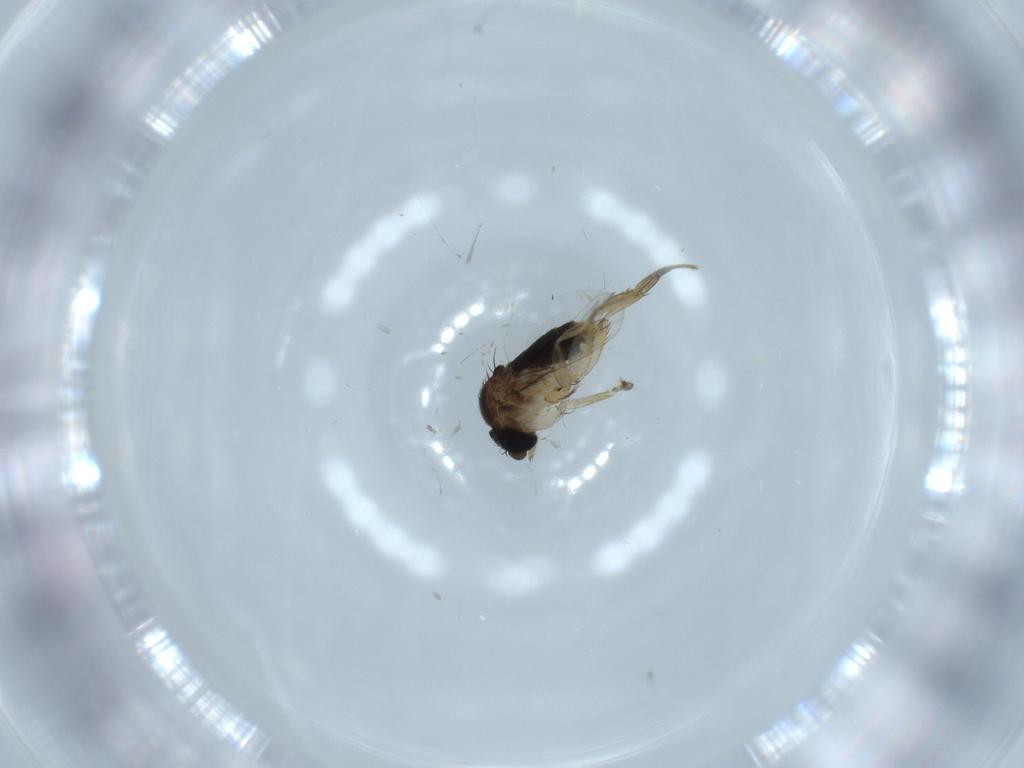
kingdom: Animalia
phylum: Arthropoda
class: Insecta
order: Diptera
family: Phoridae
